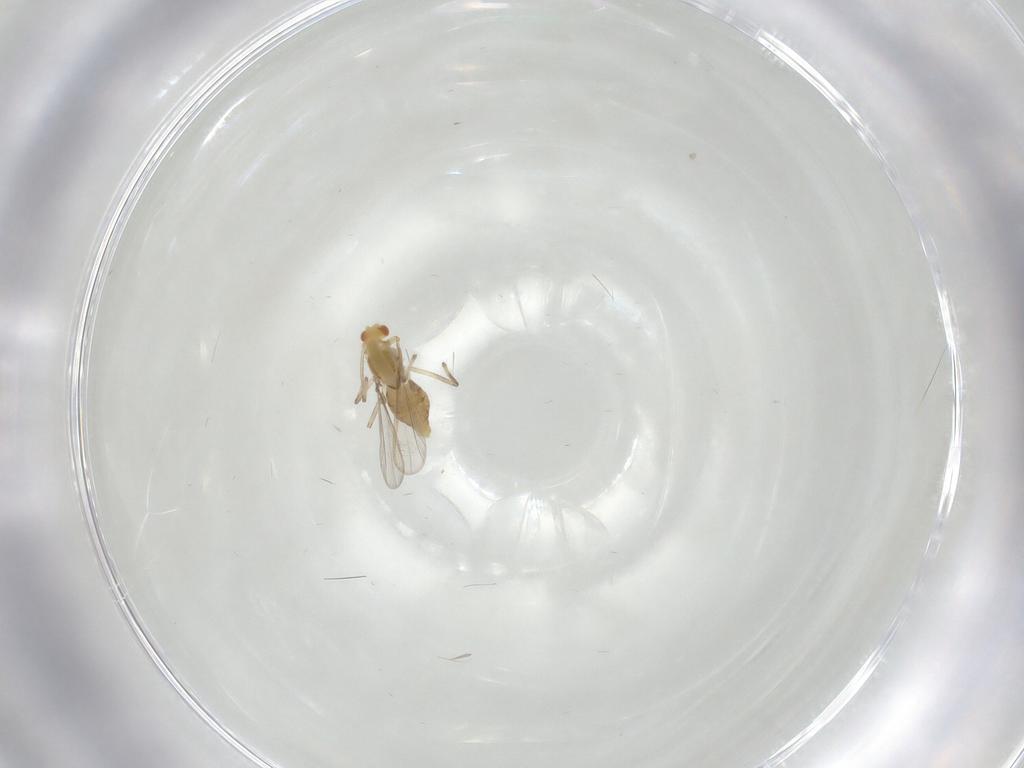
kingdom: Animalia
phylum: Arthropoda
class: Insecta
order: Diptera
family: Chironomidae
